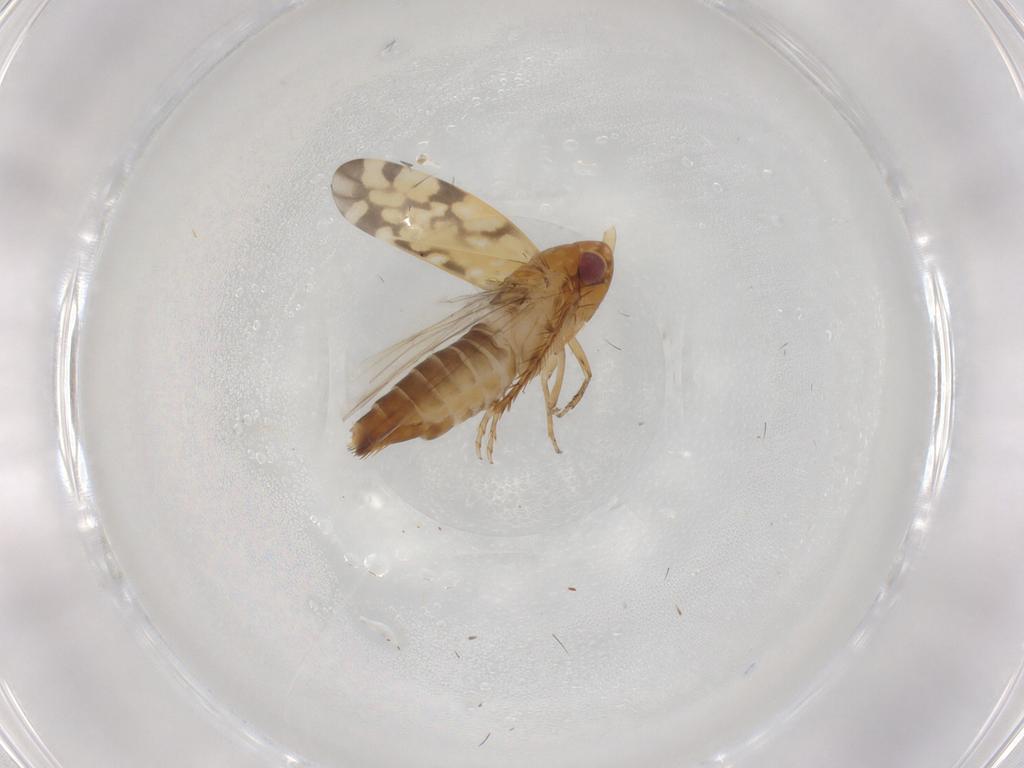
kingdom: Animalia
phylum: Arthropoda
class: Insecta
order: Hemiptera
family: Cicadellidae
